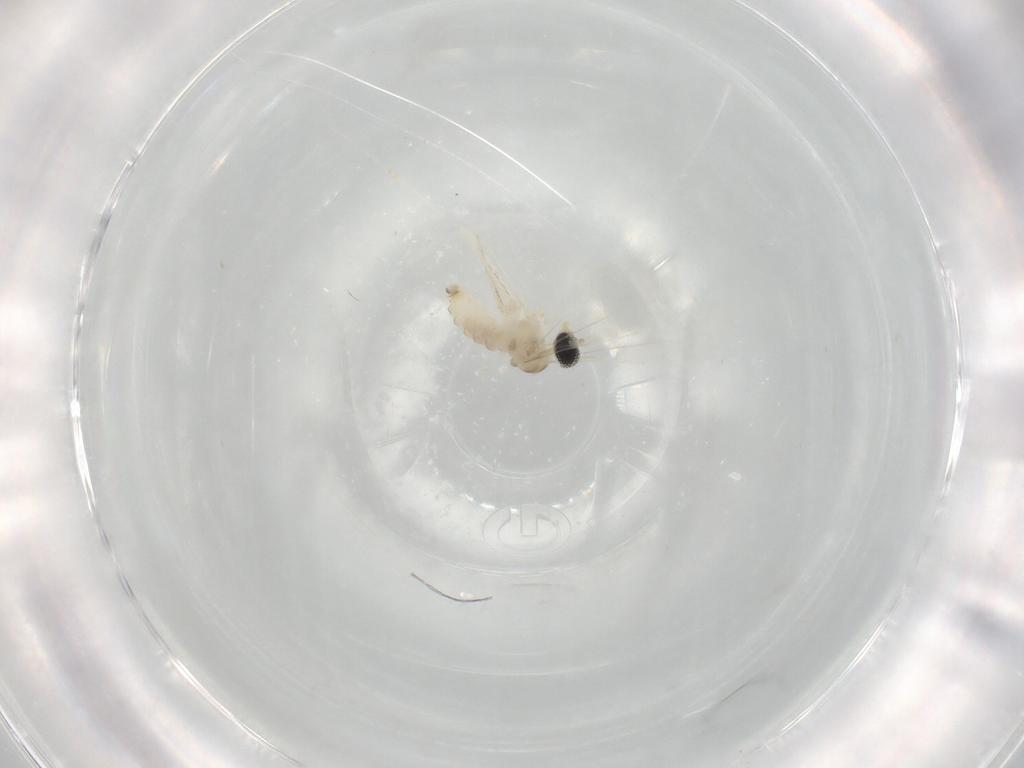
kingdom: Animalia
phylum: Arthropoda
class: Insecta
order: Diptera
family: Cecidomyiidae
